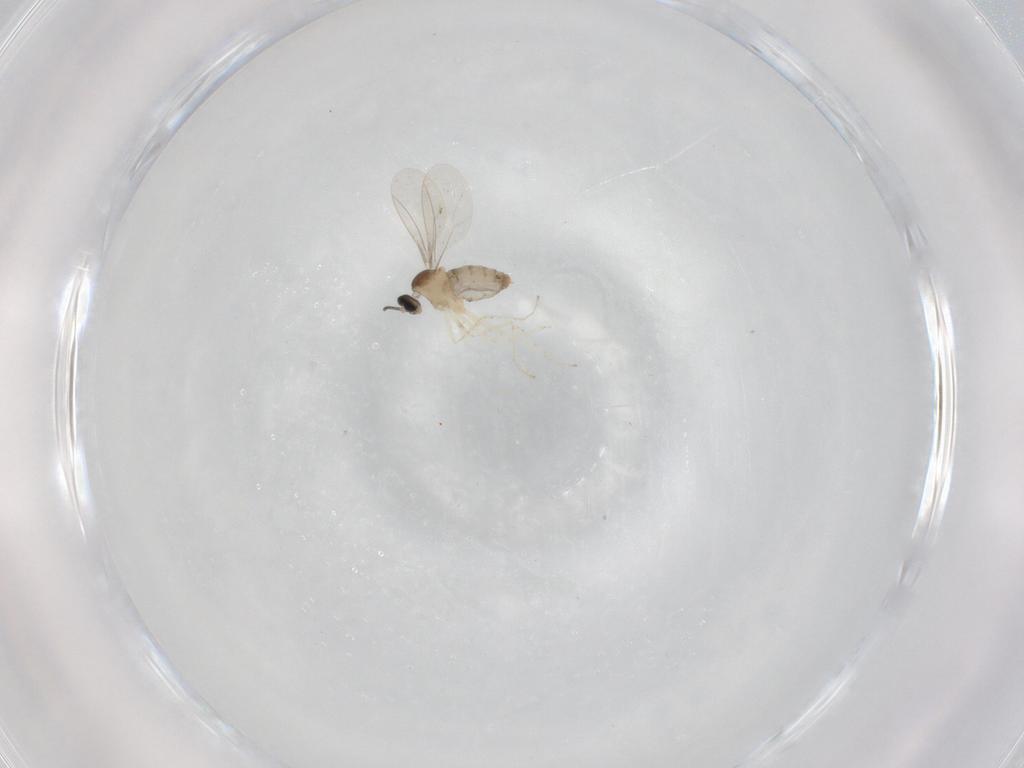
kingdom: Animalia
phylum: Arthropoda
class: Insecta
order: Diptera
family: Cecidomyiidae
